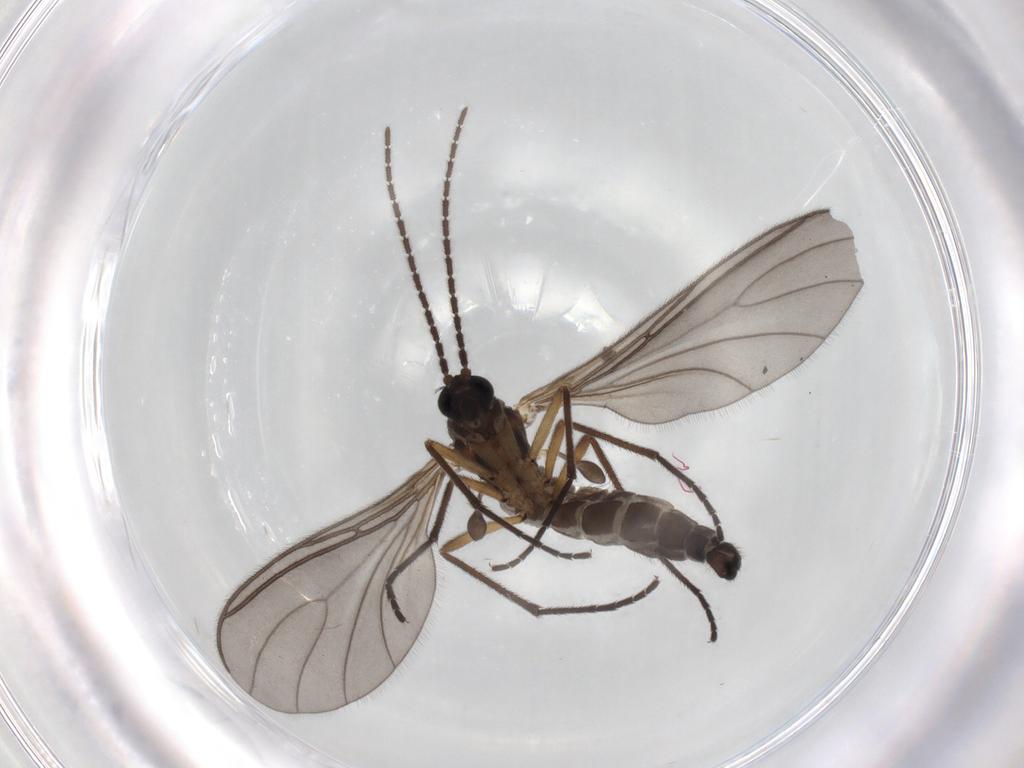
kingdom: Animalia
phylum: Arthropoda
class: Insecta
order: Diptera
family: Sciaridae
